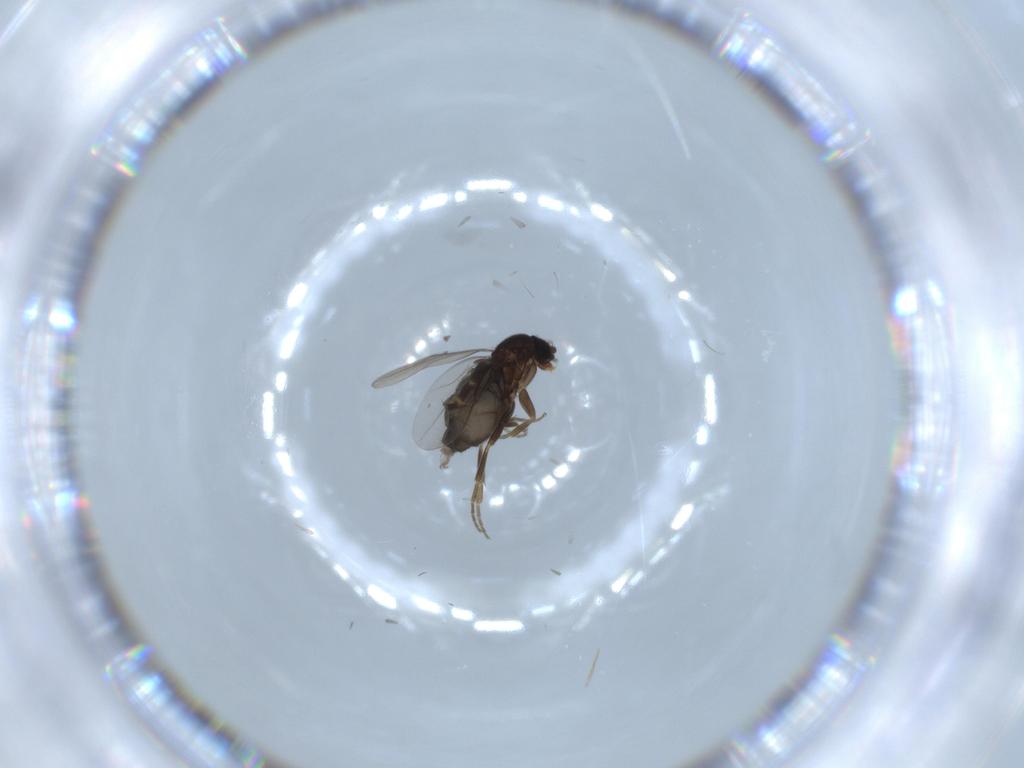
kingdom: Animalia
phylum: Arthropoda
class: Insecta
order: Diptera
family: Phoridae
